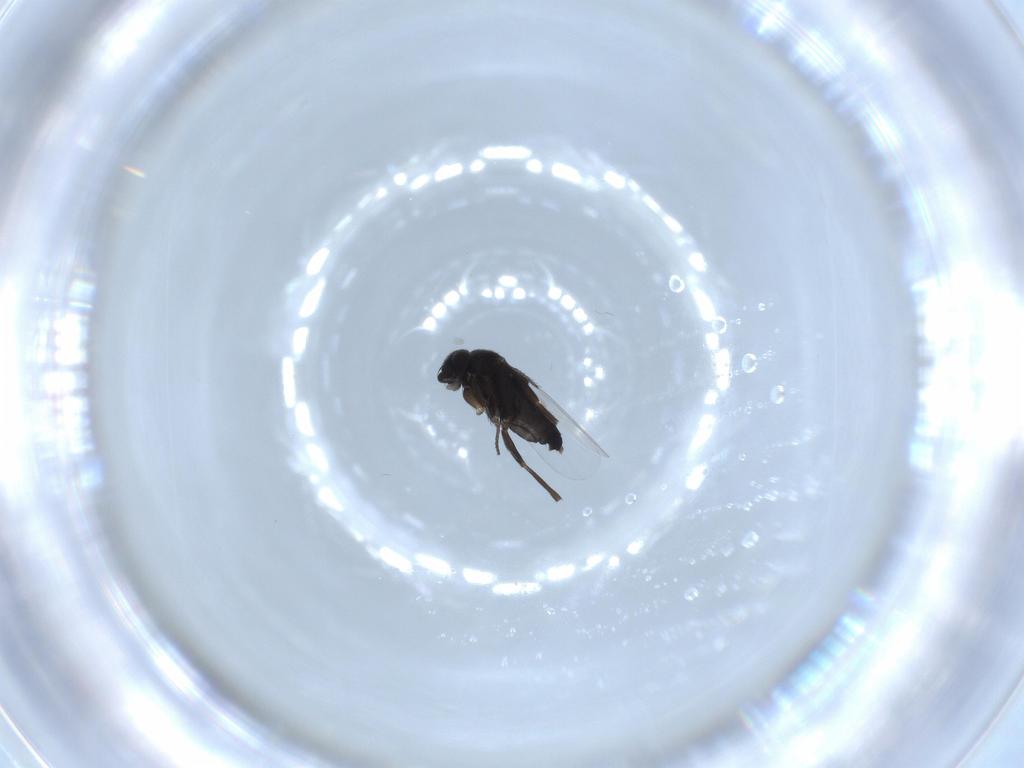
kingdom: Animalia
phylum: Arthropoda
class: Insecta
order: Diptera
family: Phoridae
